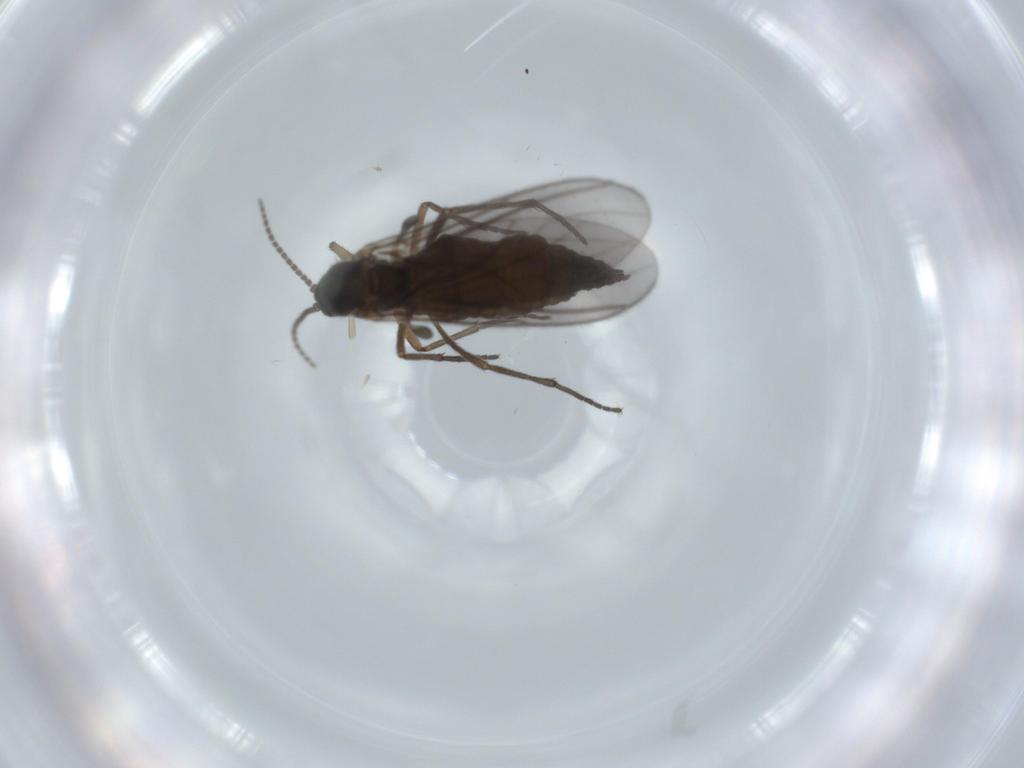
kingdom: Animalia
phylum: Arthropoda
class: Insecta
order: Diptera
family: Sciaridae
